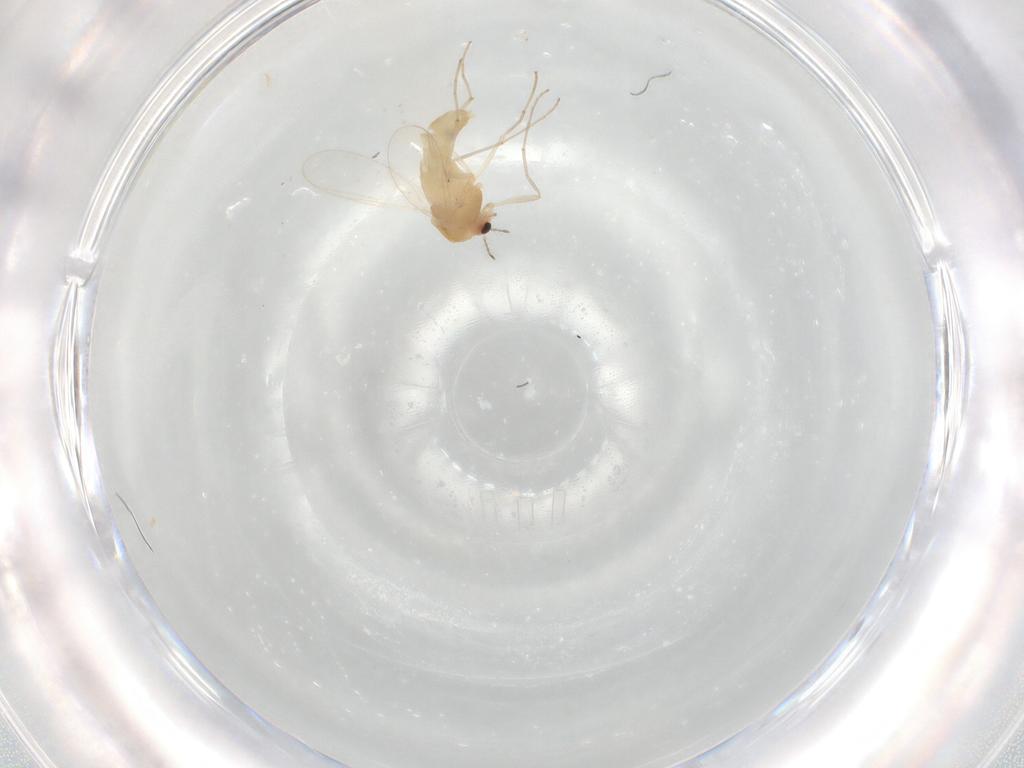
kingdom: Animalia
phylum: Arthropoda
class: Insecta
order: Diptera
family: Chironomidae
